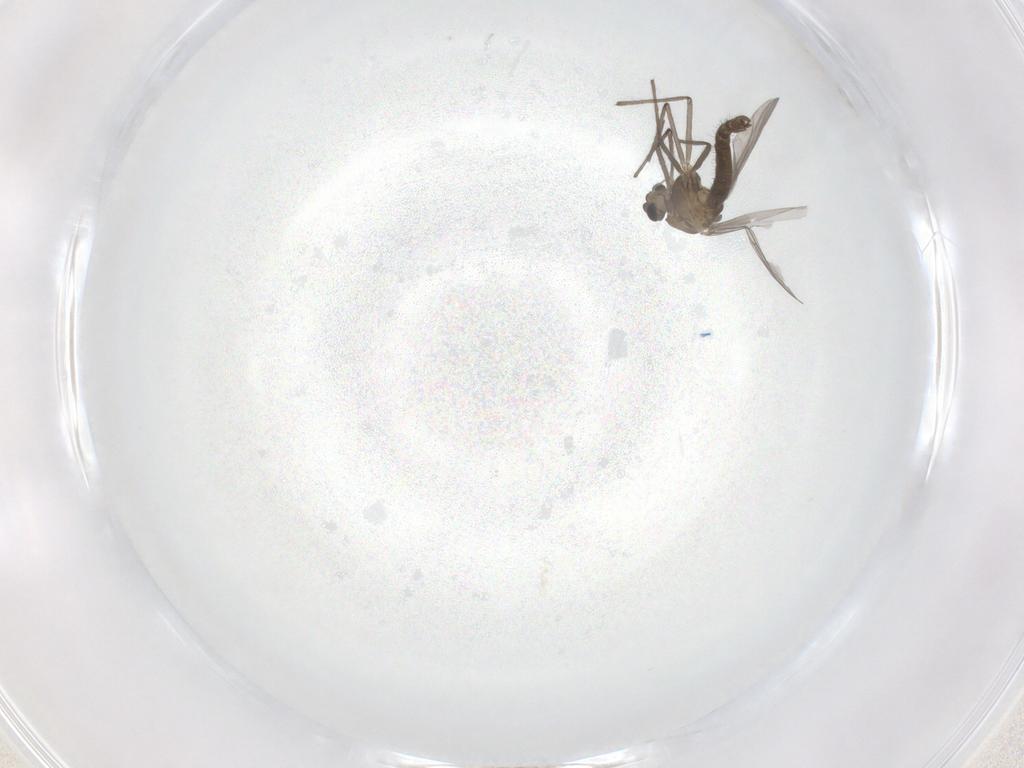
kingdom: Animalia
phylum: Arthropoda
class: Insecta
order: Diptera
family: Chironomidae
